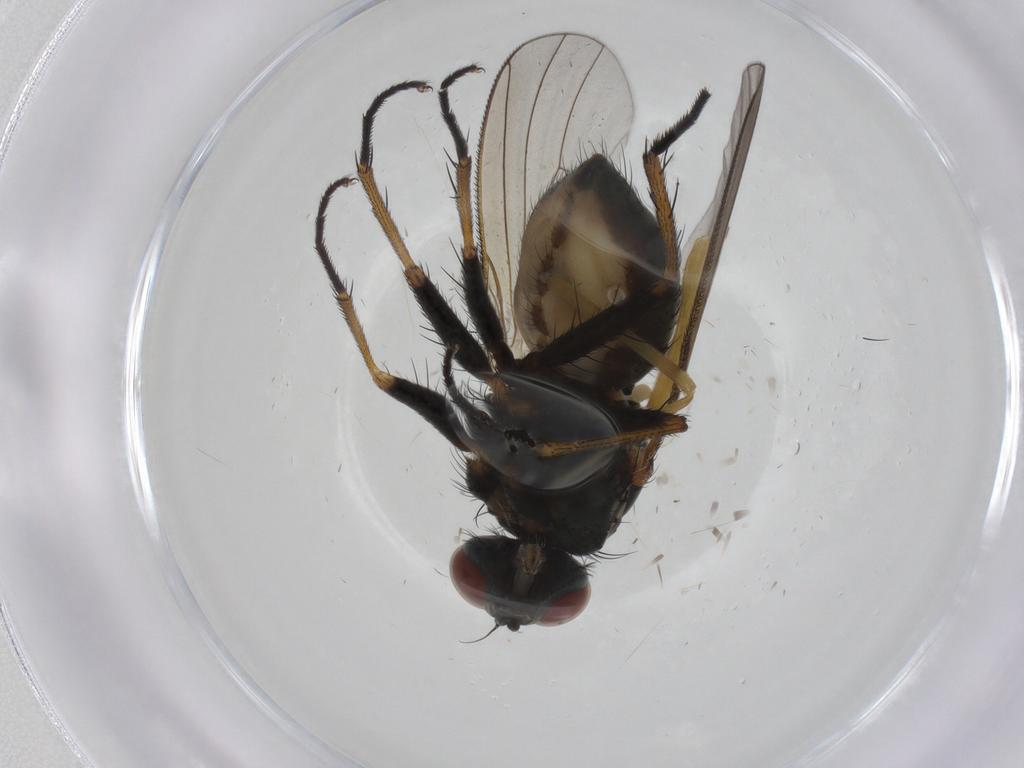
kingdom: Animalia
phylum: Arthropoda
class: Insecta
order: Diptera
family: Chironomidae
